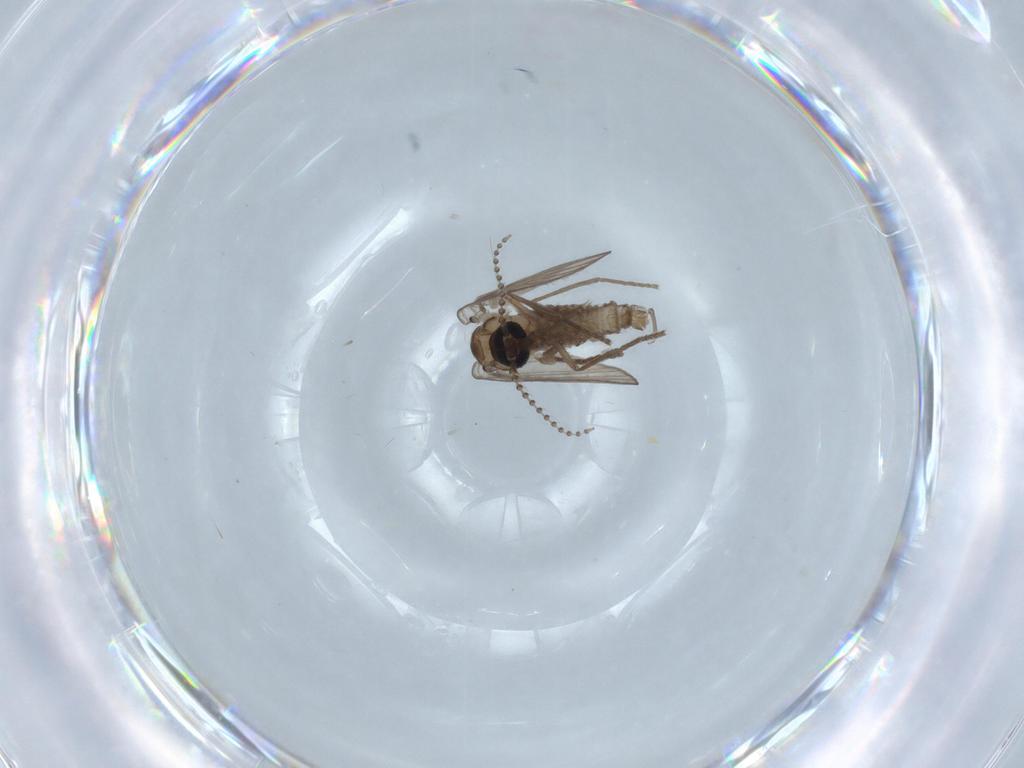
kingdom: Animalia
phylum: Arthropoda
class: Insecta
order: Diptera
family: Psychodidae
